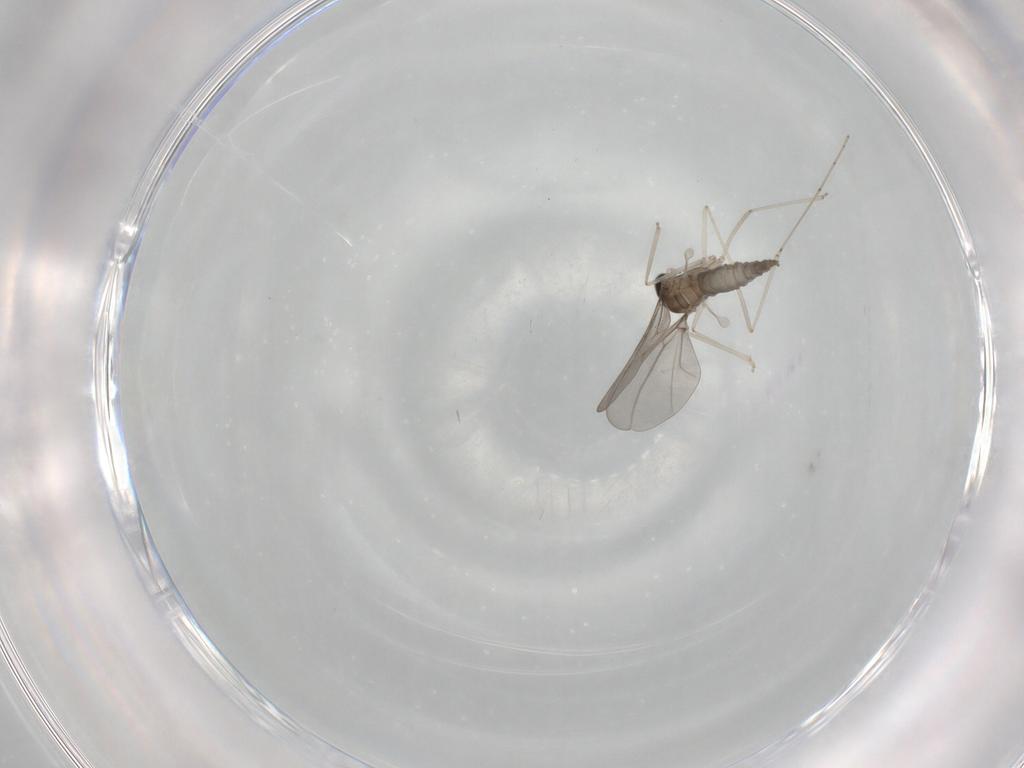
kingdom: Animalia
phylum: Arthropoda
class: Insecta
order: Diptera
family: Cecidomyiidae
